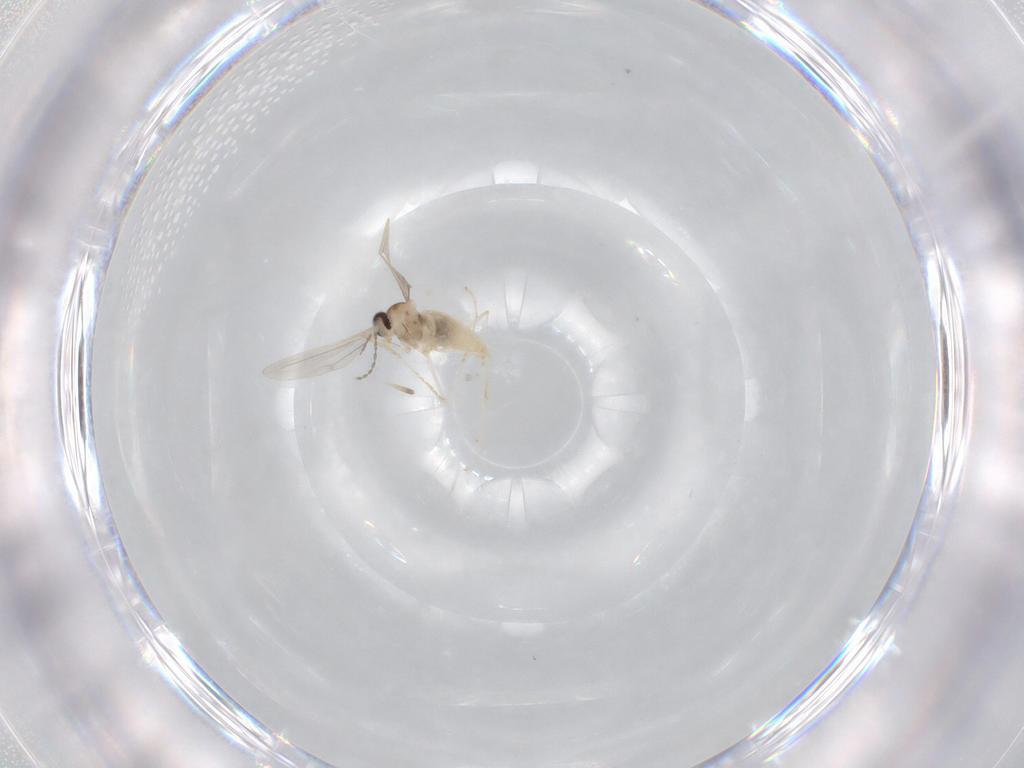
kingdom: Animalia
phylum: Arthropoda
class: Insecta
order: Diptera
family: Cecidomyiidae
